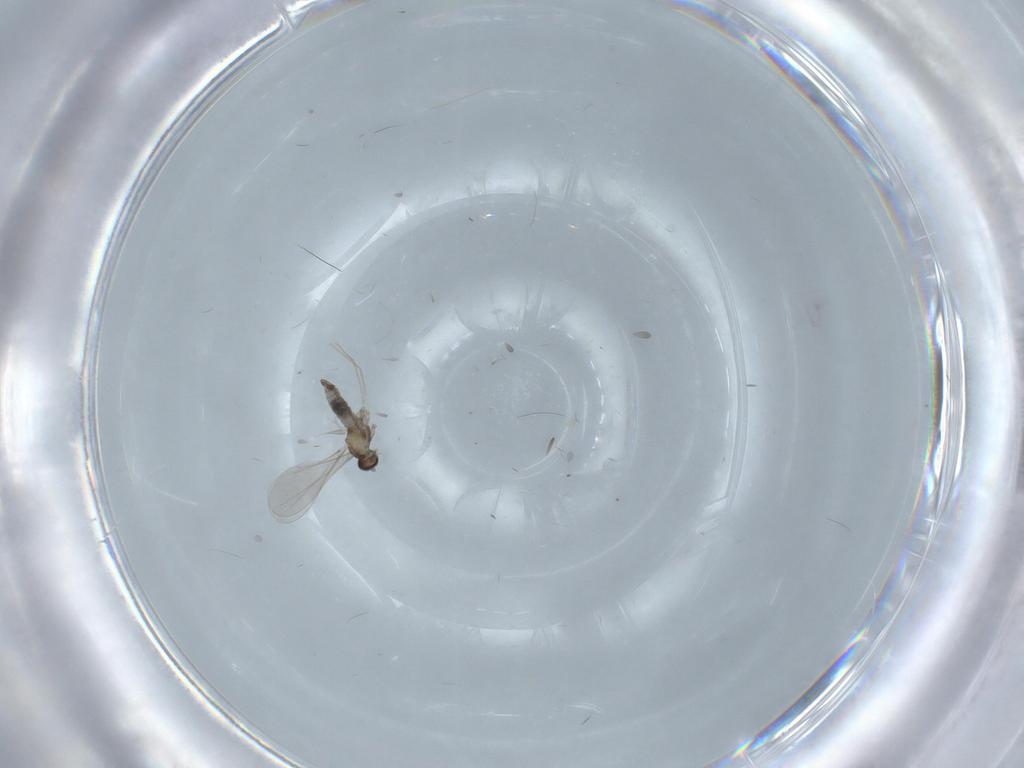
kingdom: Animalia
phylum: Arthropoda
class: Insecta
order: Diptera
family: Cecidomyiidae
